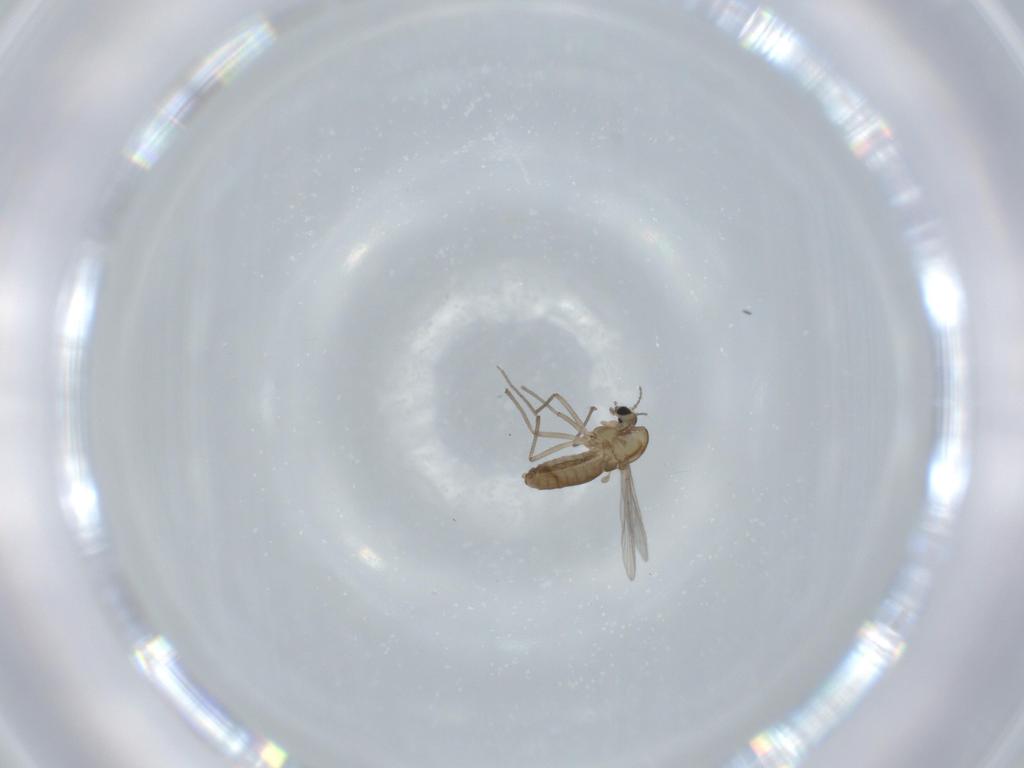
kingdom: Animalia
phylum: Arthropoda
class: Insecta
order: Diptera
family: Chironomidae
